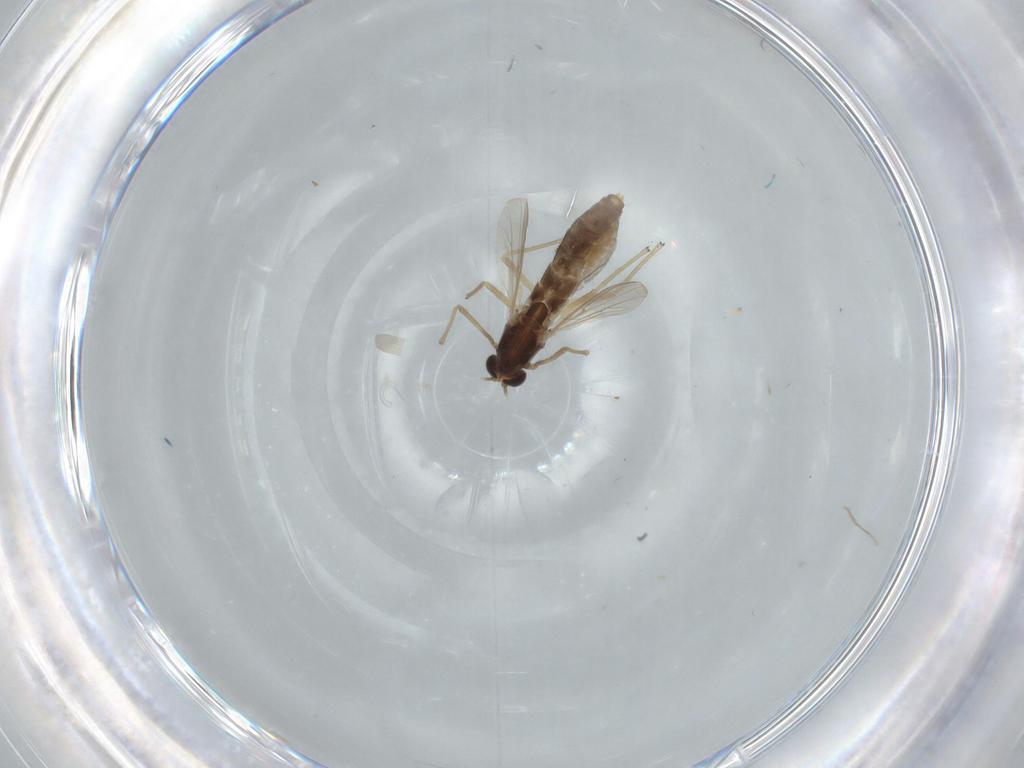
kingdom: Animalia
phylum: Arthropoda
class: Insecta
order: Diptera
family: Chironomidae
